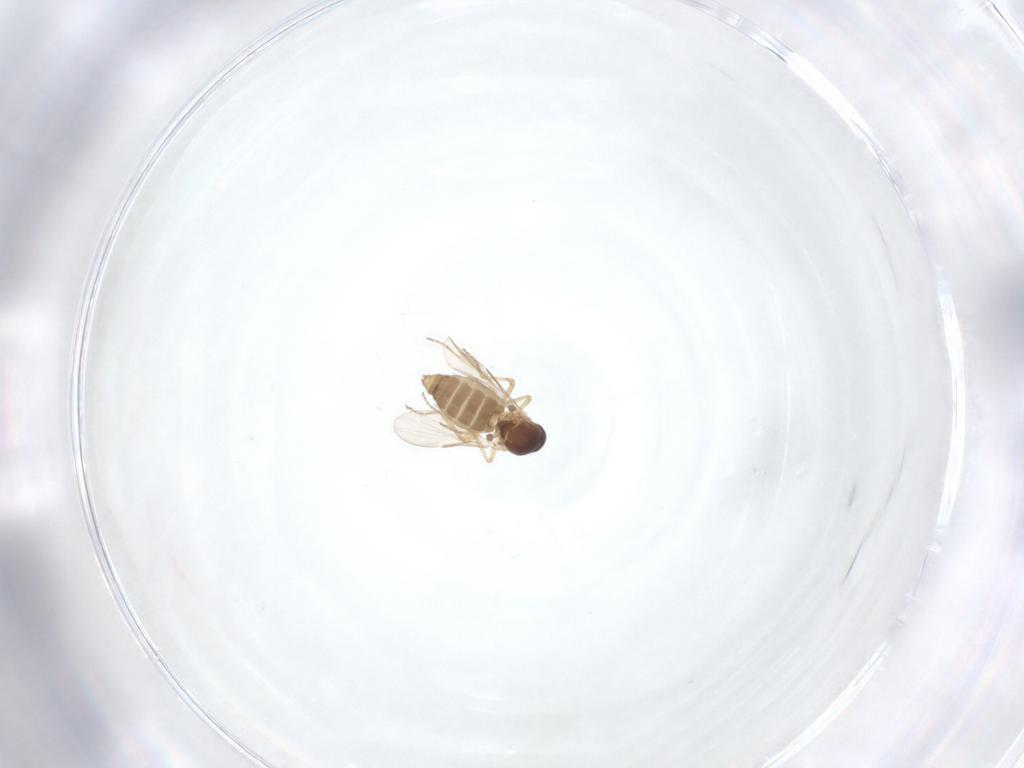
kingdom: Animalia
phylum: Arthropoda
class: Insecta
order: Diptera
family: Ceratopogonidae
